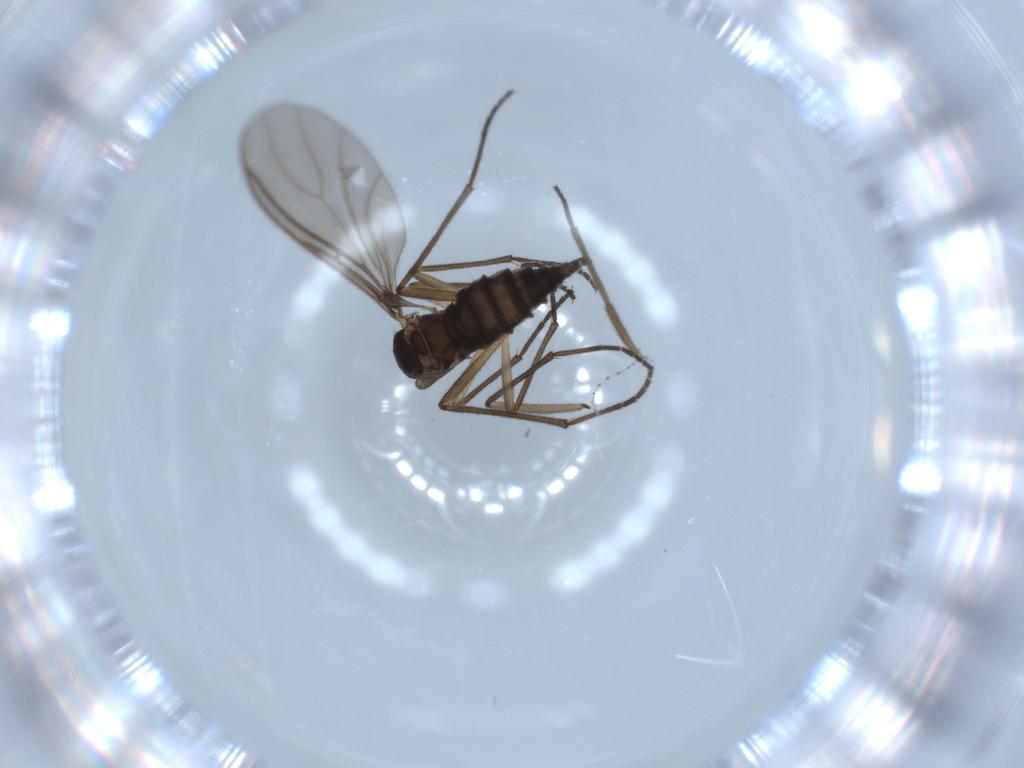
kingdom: Animalia
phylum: Arthropoda
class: Insecta
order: Diptera
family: Sciaridae
